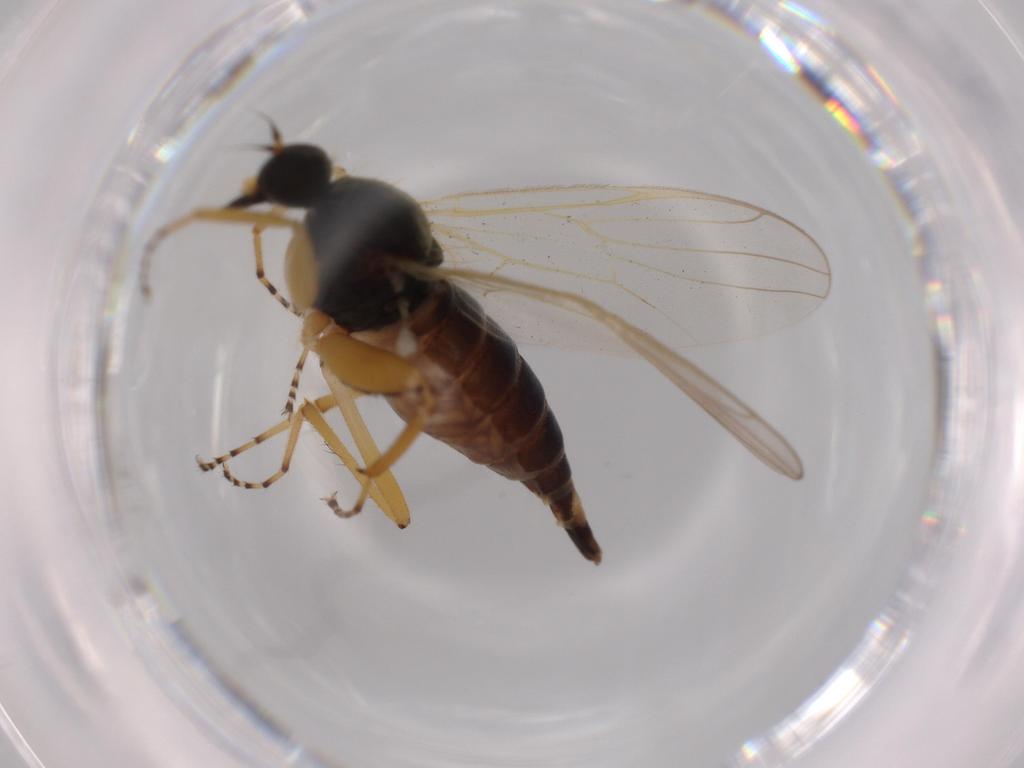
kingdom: Animalia
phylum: Arthropoda
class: Insecta
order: Diptera
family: Hybotidae
